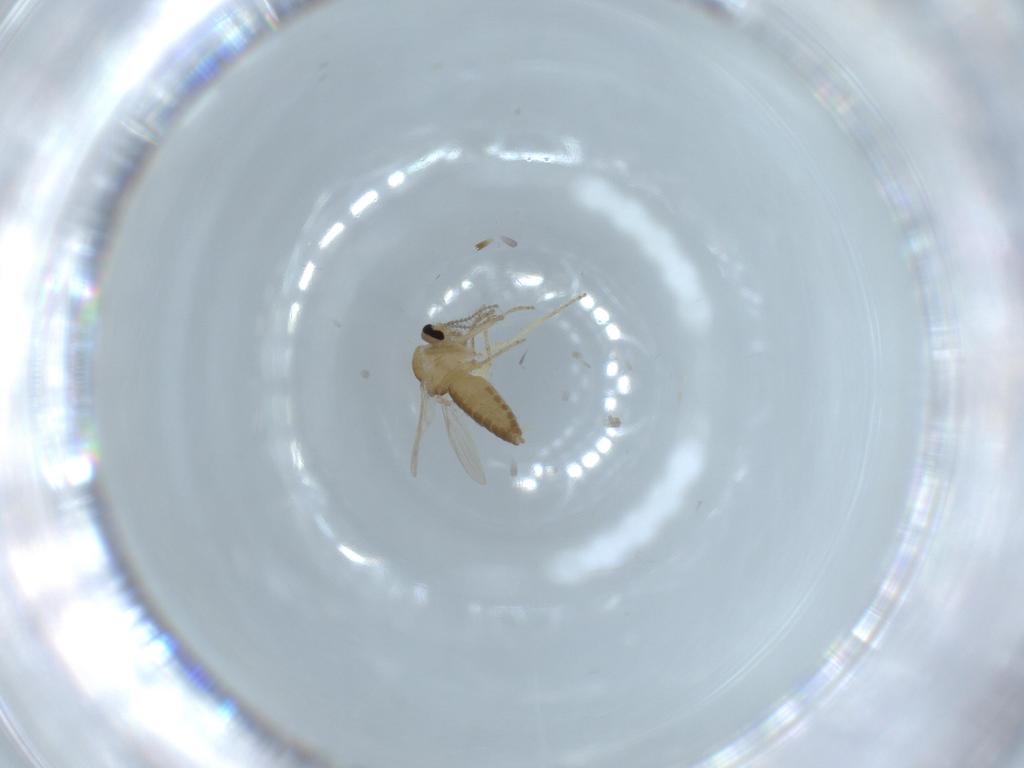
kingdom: Animalia
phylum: Arthropoda
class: Insecta
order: Diptera
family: Ceratopogonidae
